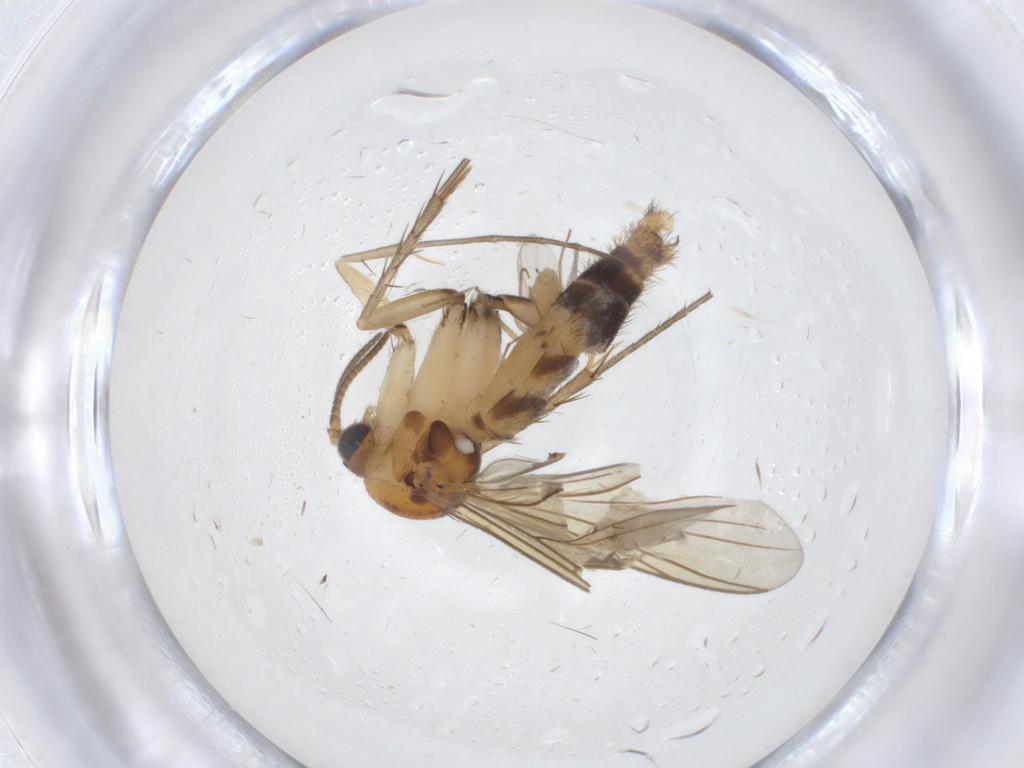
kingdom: Animalia
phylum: Arthropoda
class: Insecta
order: Diptera
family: Mycetophilidae
